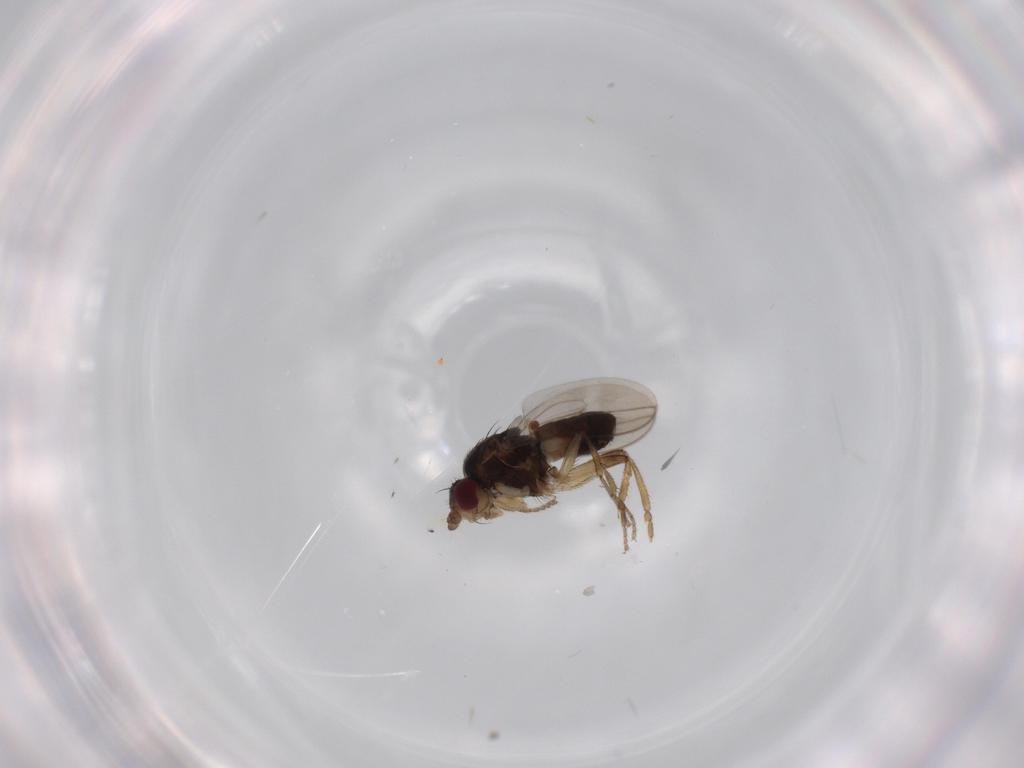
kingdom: Animalia
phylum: Arthropoda
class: Insecta
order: Diptera
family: Sphaeroceridae
